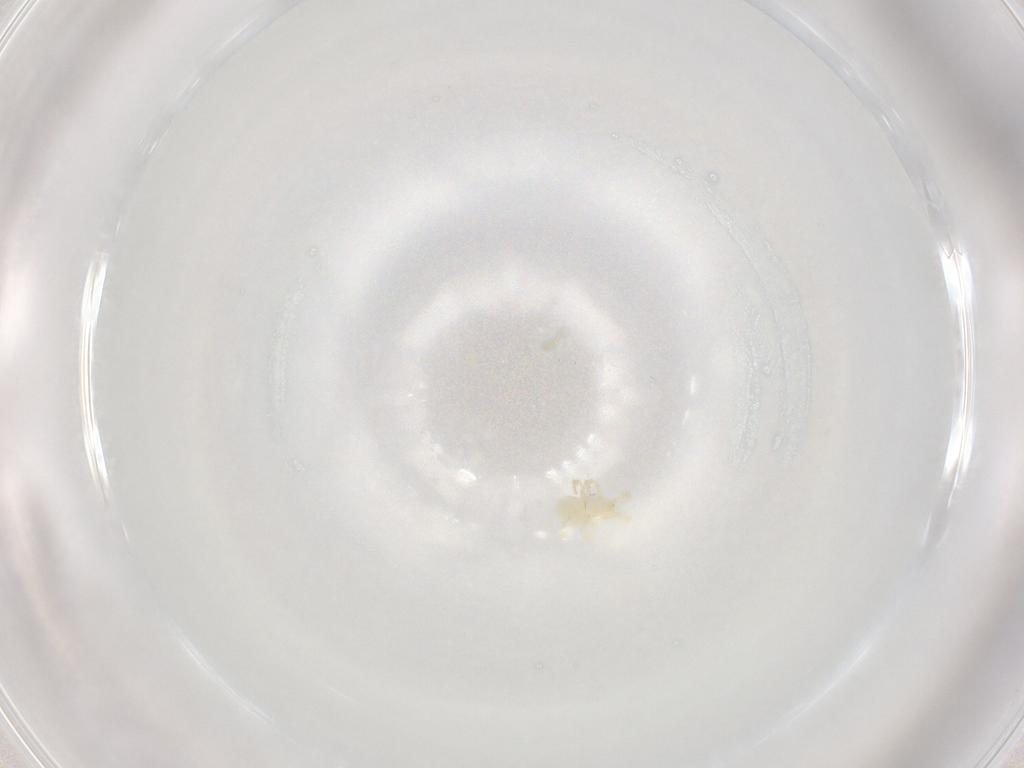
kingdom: Animalia
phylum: Arthropoda
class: Arachnida
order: Trombidiformes
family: Trombidiidae
